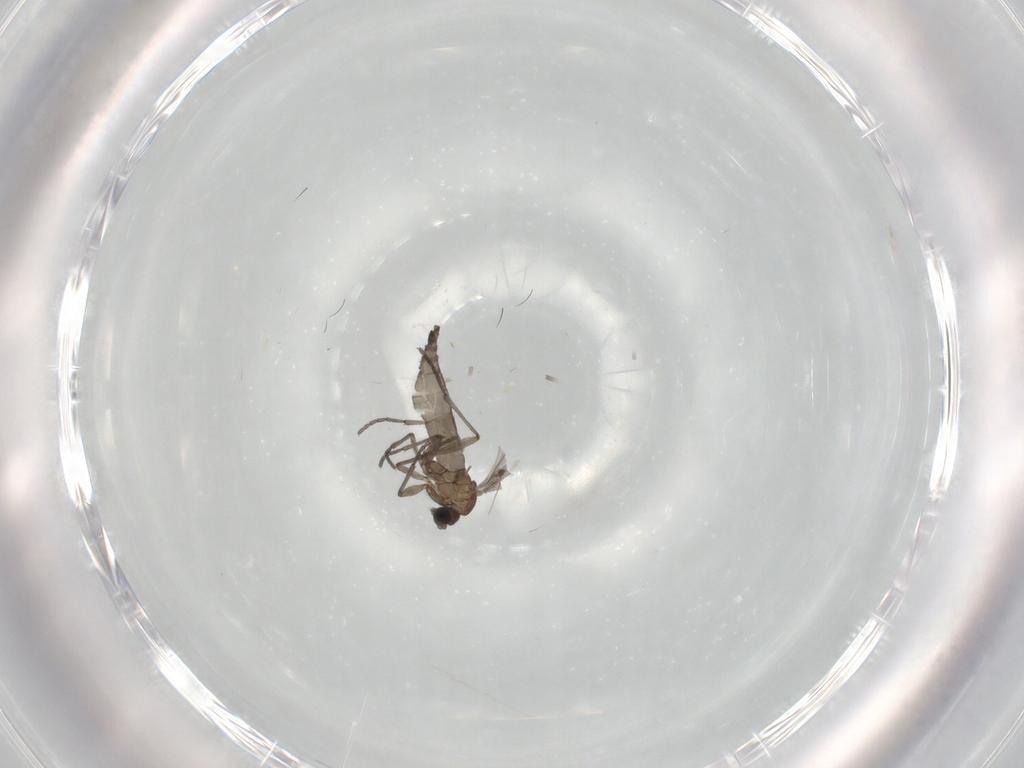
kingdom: Animalia
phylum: Arthropoda
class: Insecta
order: Diptera
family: Sciaridae
